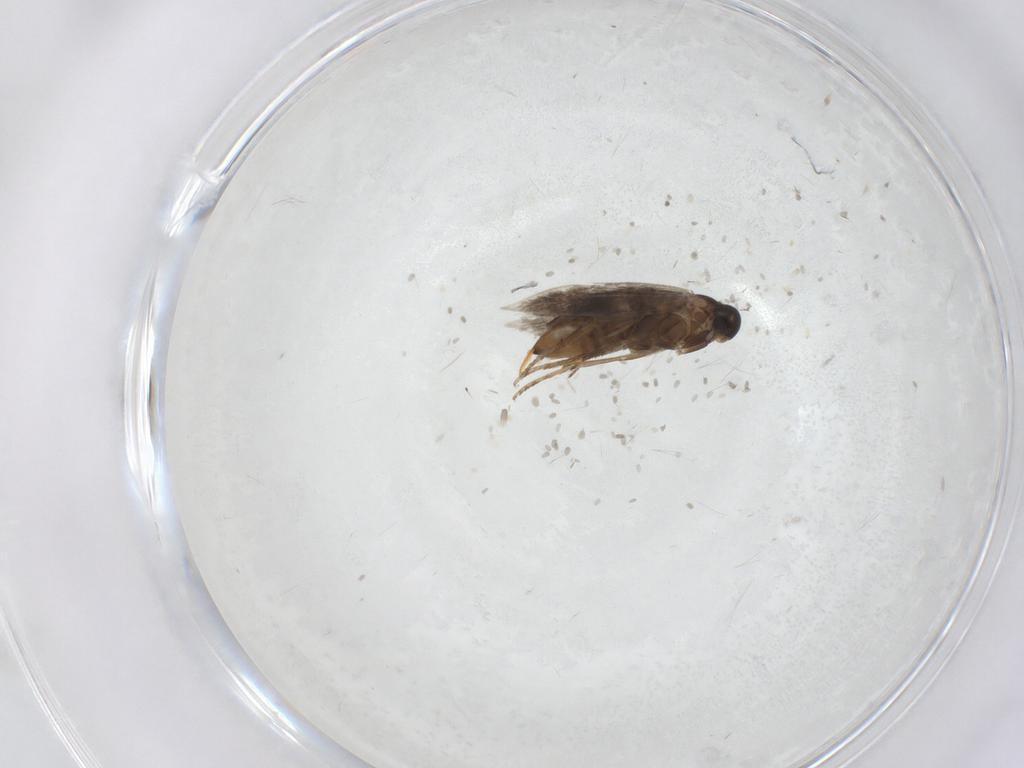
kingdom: Animalia
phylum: Arthropoda
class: Insecta
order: Lepidoptera
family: Heliozelidae
